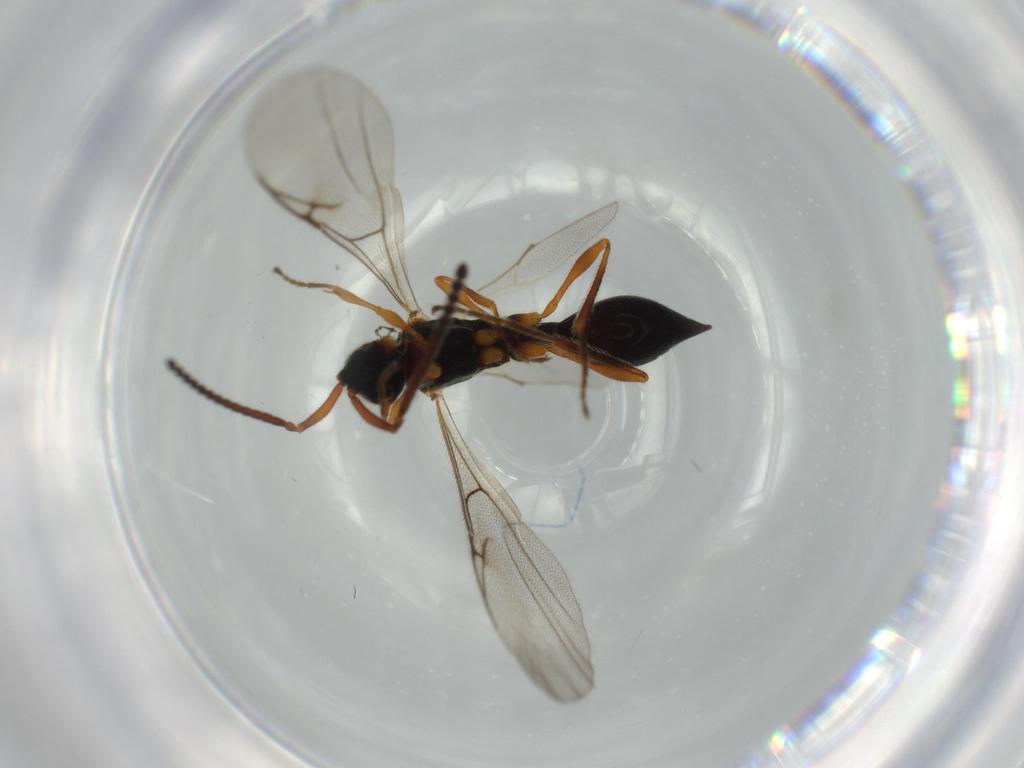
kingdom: Animalia
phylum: Arthropoda
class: Insecta
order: Hymenoptera
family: Diapriidae
